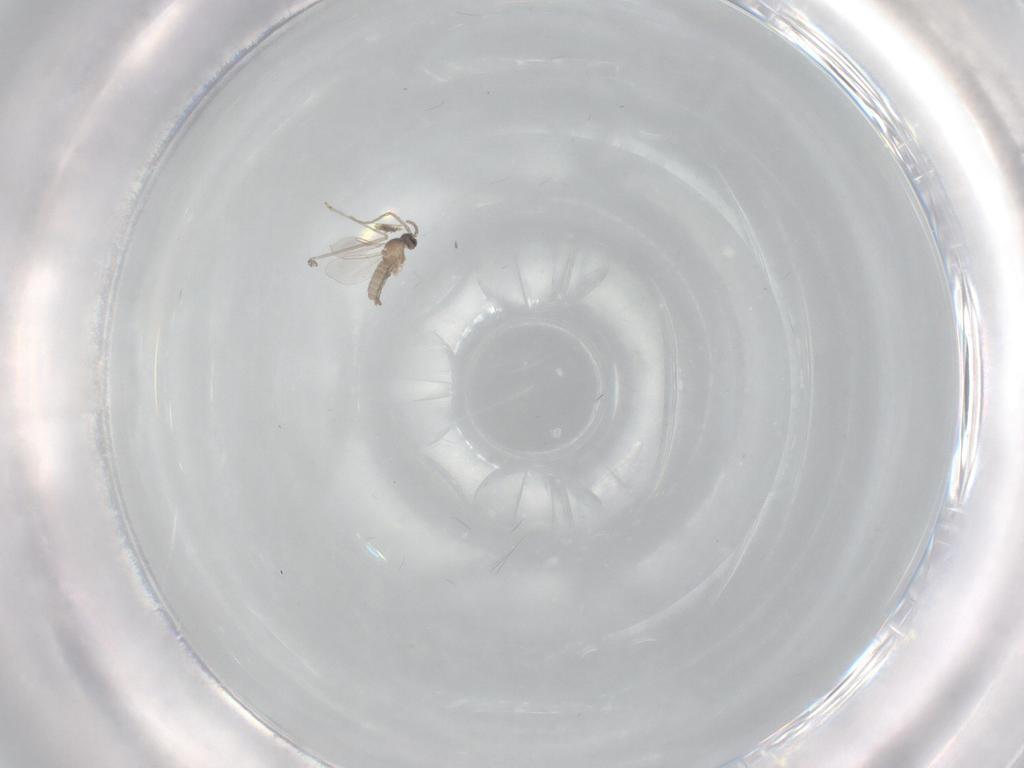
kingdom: Animalia
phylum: Arthropoda
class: Insecta
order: Diptera
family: Cecidomyiidae
